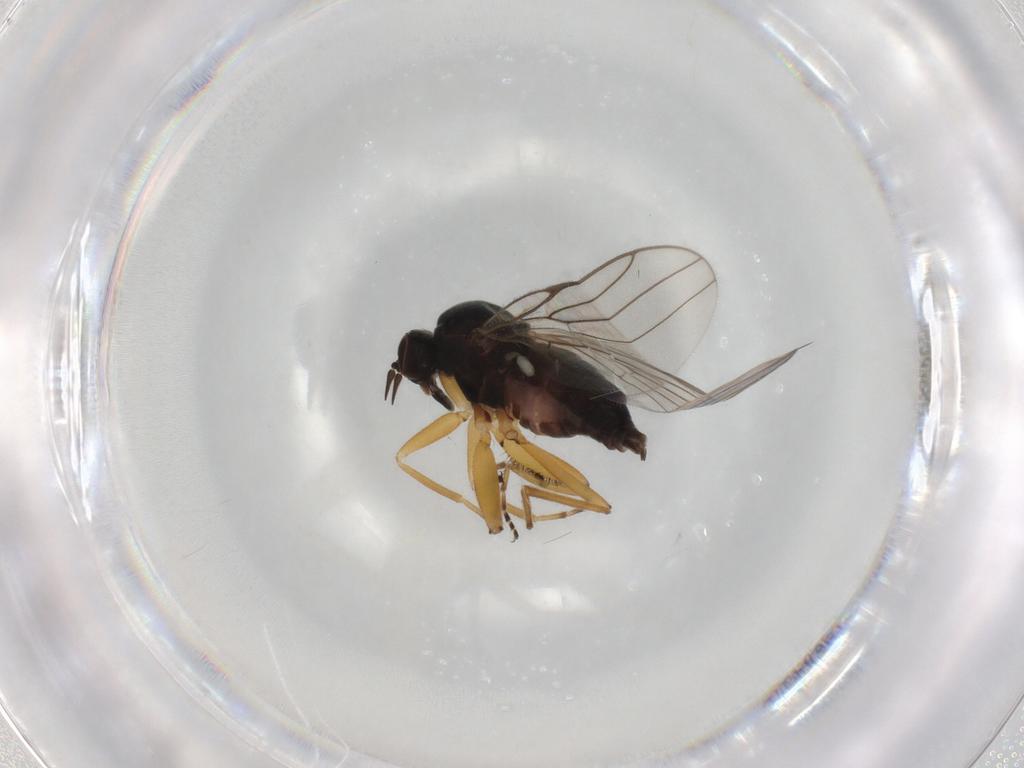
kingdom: Animalia
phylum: Arthropoda
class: Insecta
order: Diptera
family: Hybotidae
